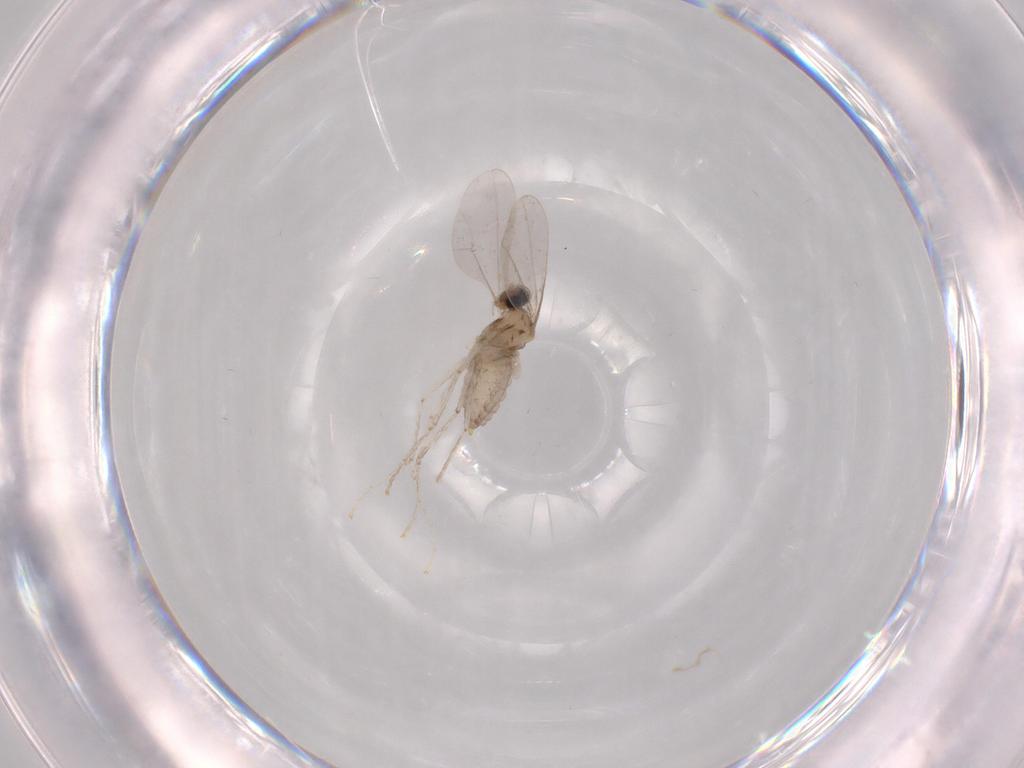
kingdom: Animalia
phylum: Arthropoda
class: Insecta
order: Diptera
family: Cecidomyiidae
